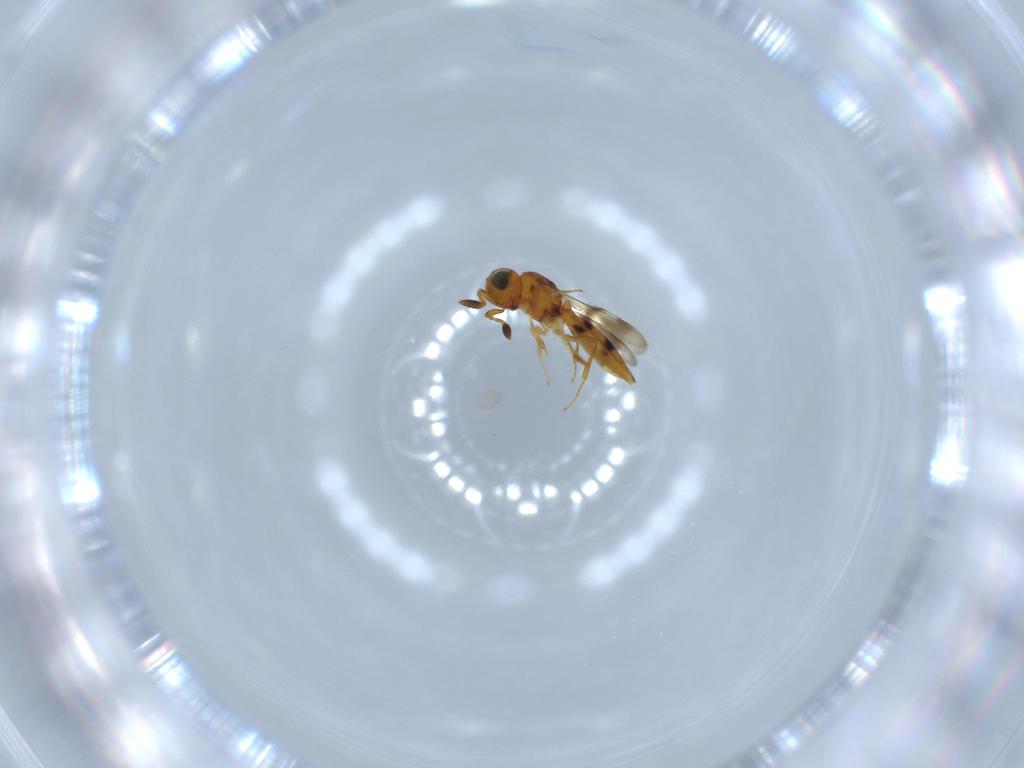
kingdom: Animalia
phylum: Arthropoda
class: Insecta
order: Hymenoptera
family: Scelionidae
